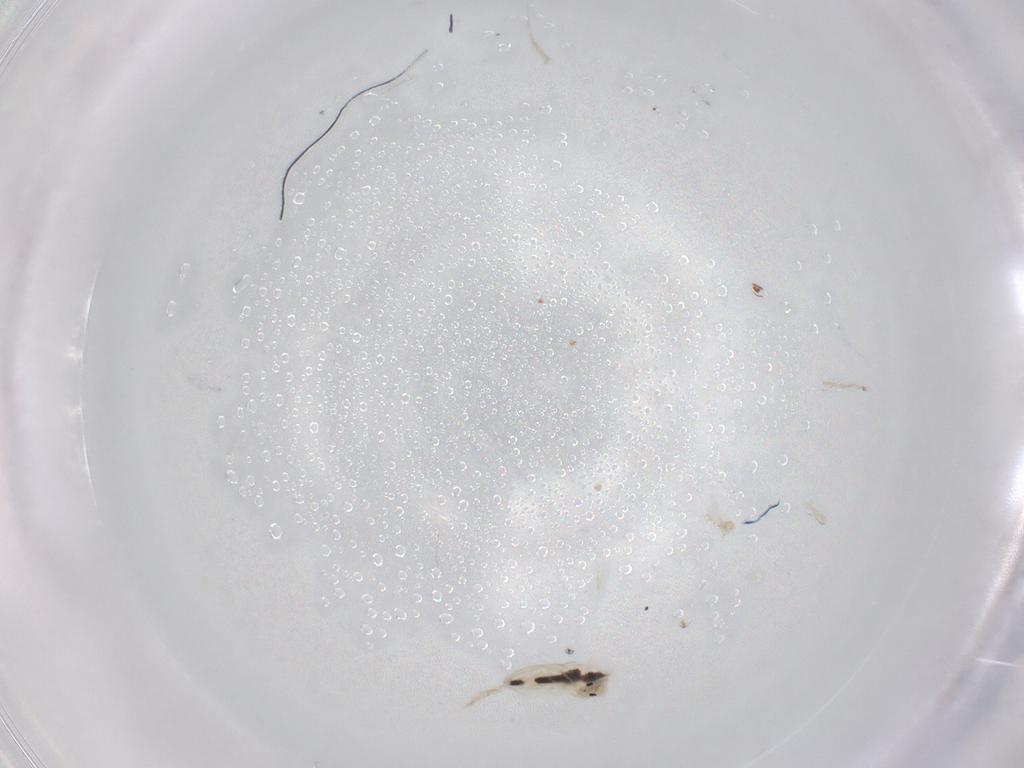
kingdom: Animalia
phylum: Arthropoda
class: Collembola
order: Entomobryomorpha
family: Entomobryidae
